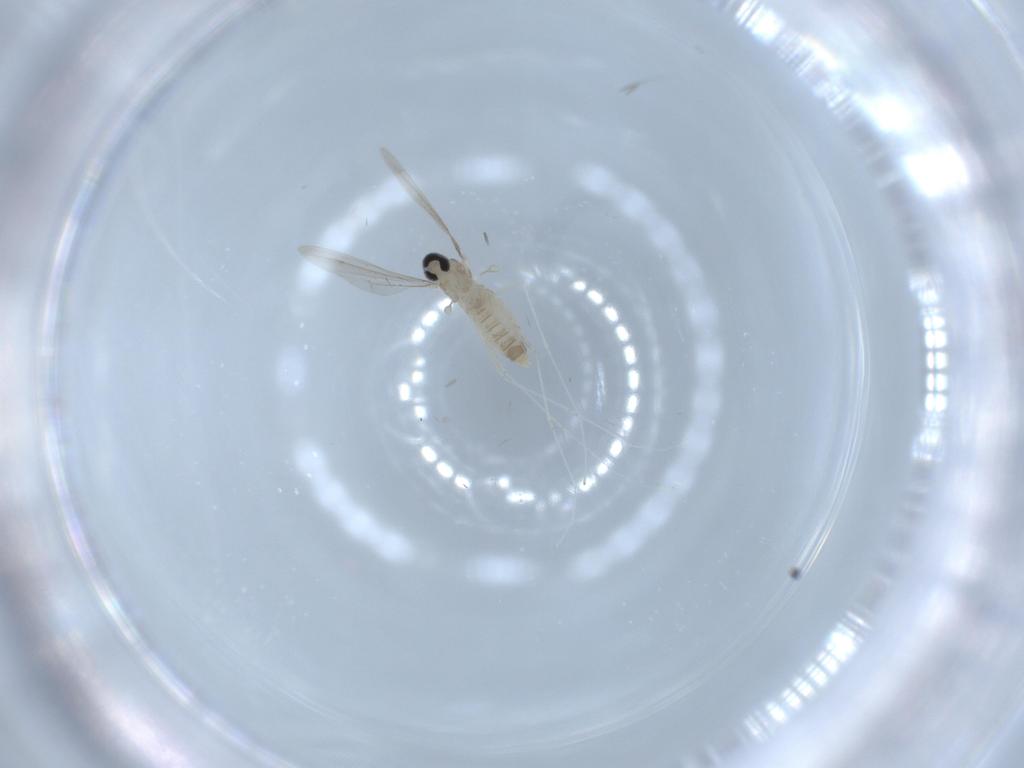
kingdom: Animalia
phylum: Arthropoda
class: Insecta
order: Diptera
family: Cecidomyiidae
